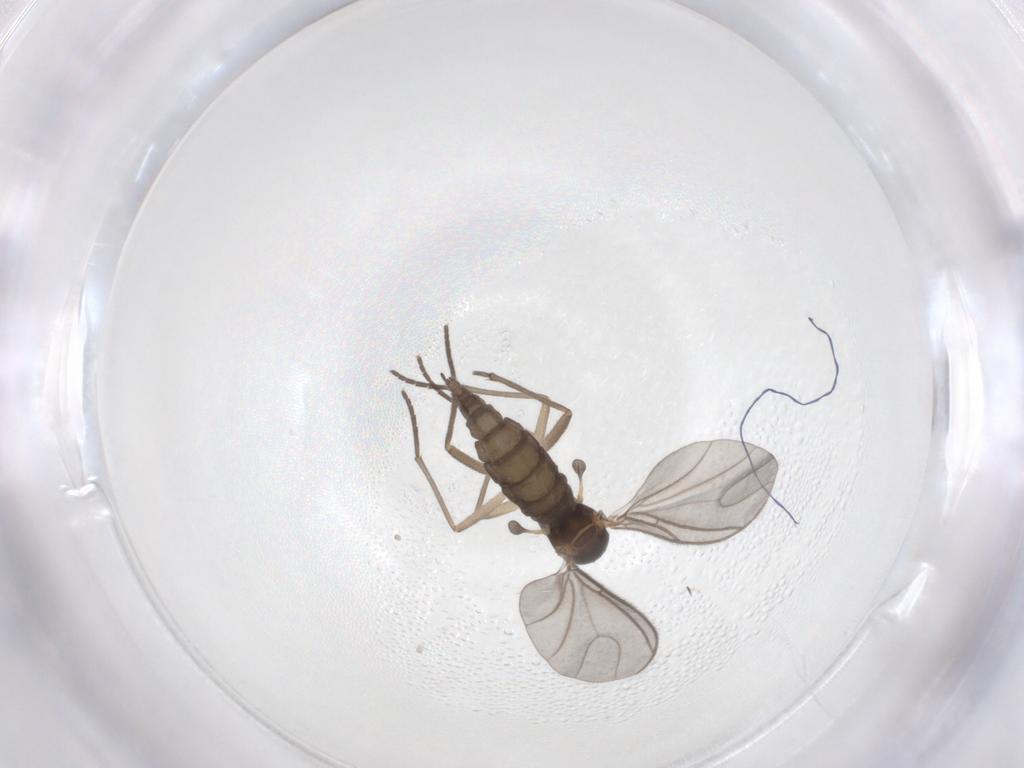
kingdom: Animalia
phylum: Arthropoda
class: Insecta
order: Diptera
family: Sciaridae
